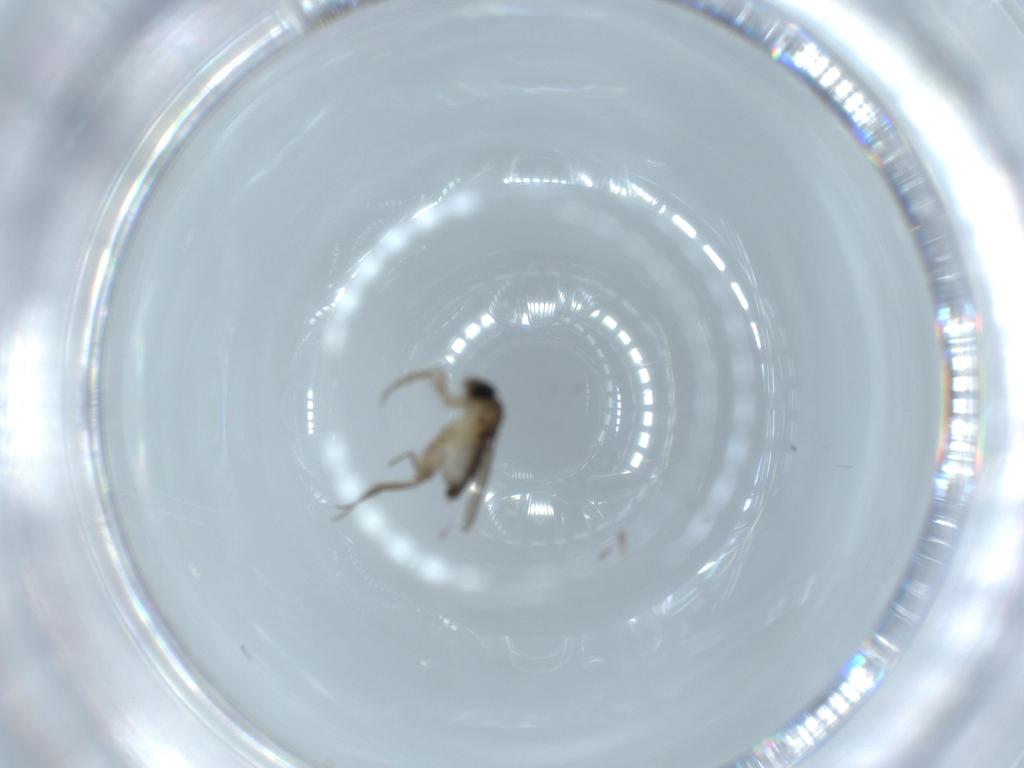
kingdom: Animalia
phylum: Arthropoda
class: Insecta
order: Diptera
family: Phoridae
